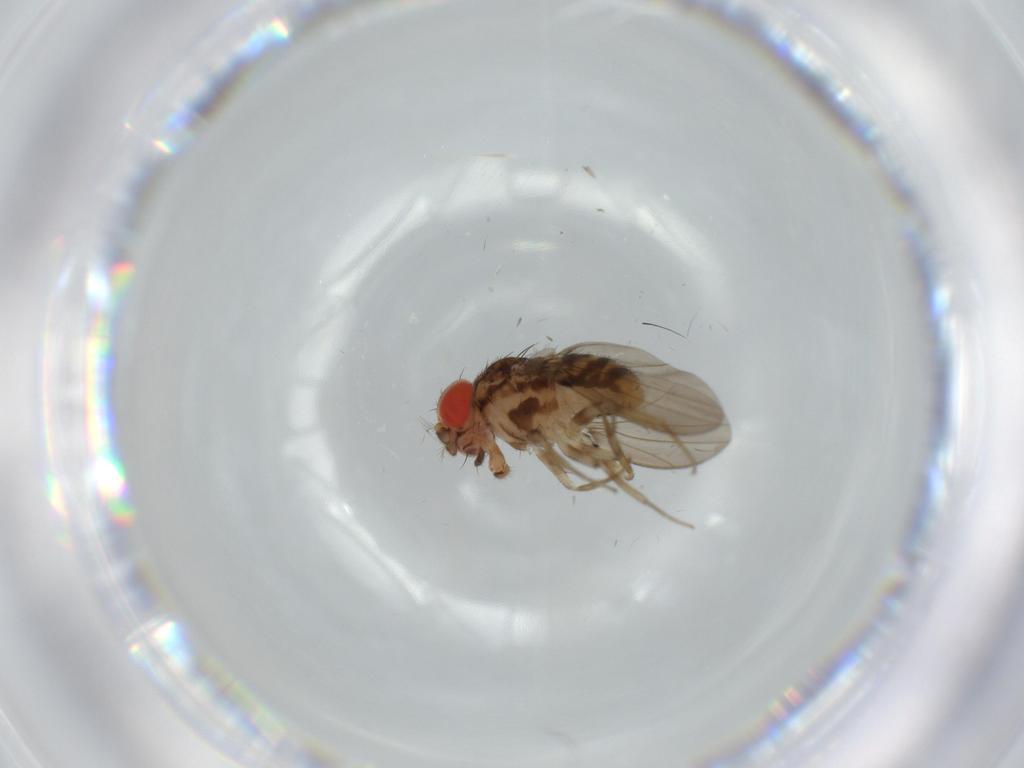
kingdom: Animalia
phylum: Arthropoda
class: Insecta
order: Diptera
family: Drosophilidae
